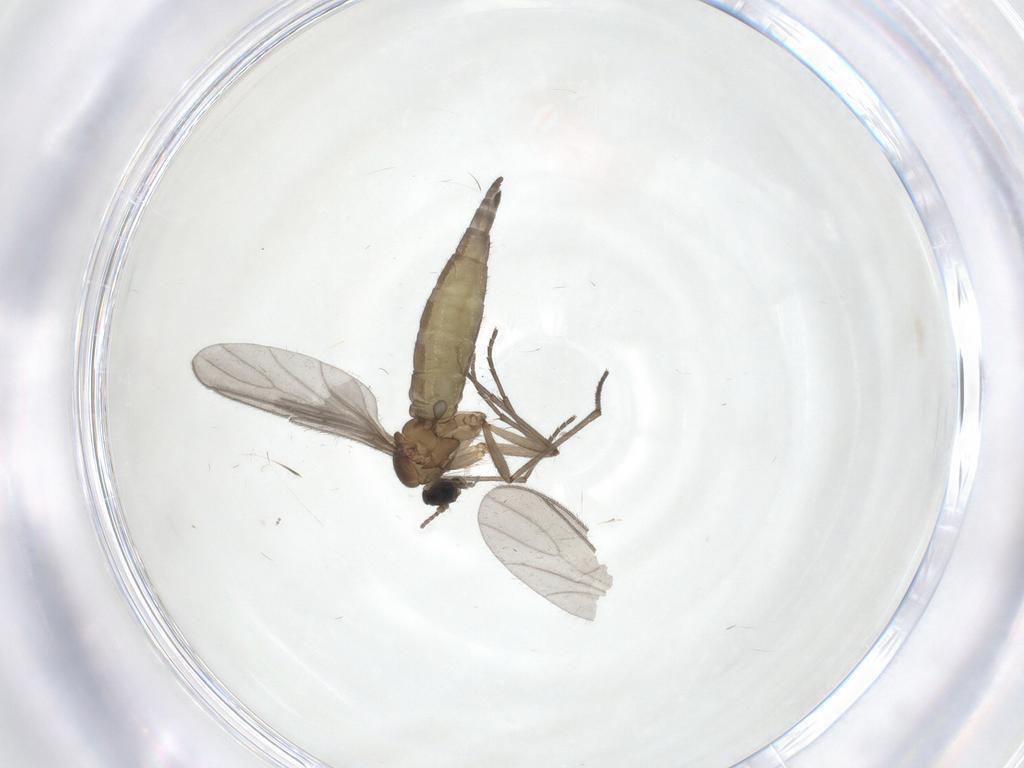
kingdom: Animalia
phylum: Arthropoda
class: Insecta
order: Diptera
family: Sciaridae
